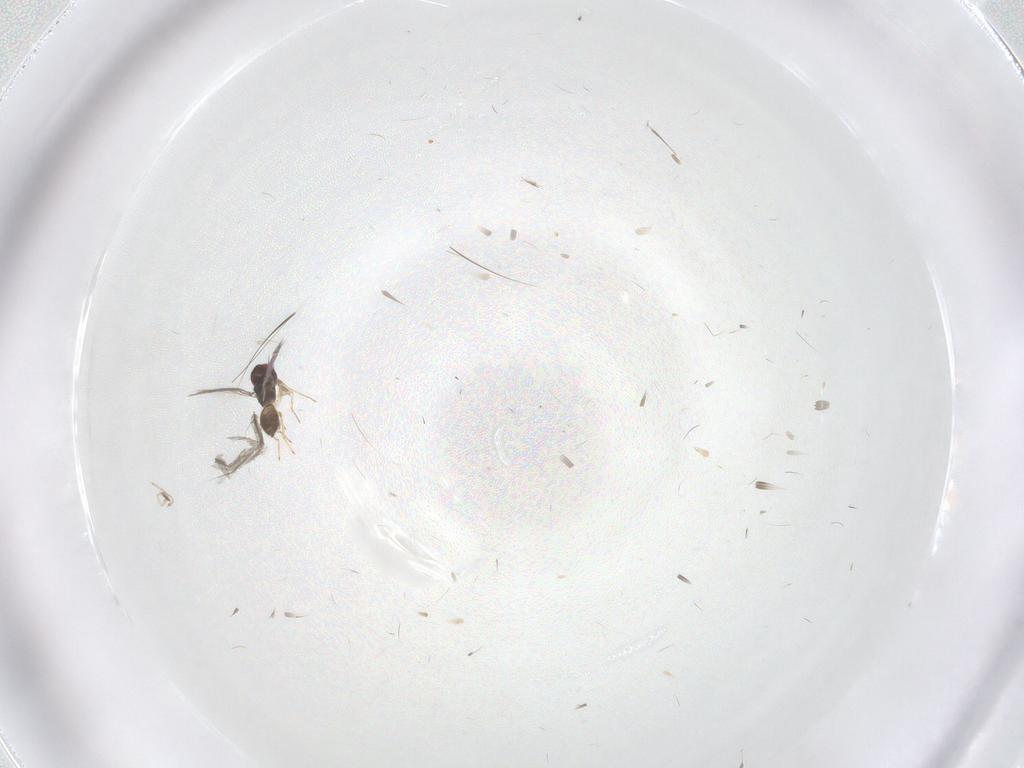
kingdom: Animalia
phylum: Arthropoda
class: Insecta
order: Hymenoptera
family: Eulophidae
